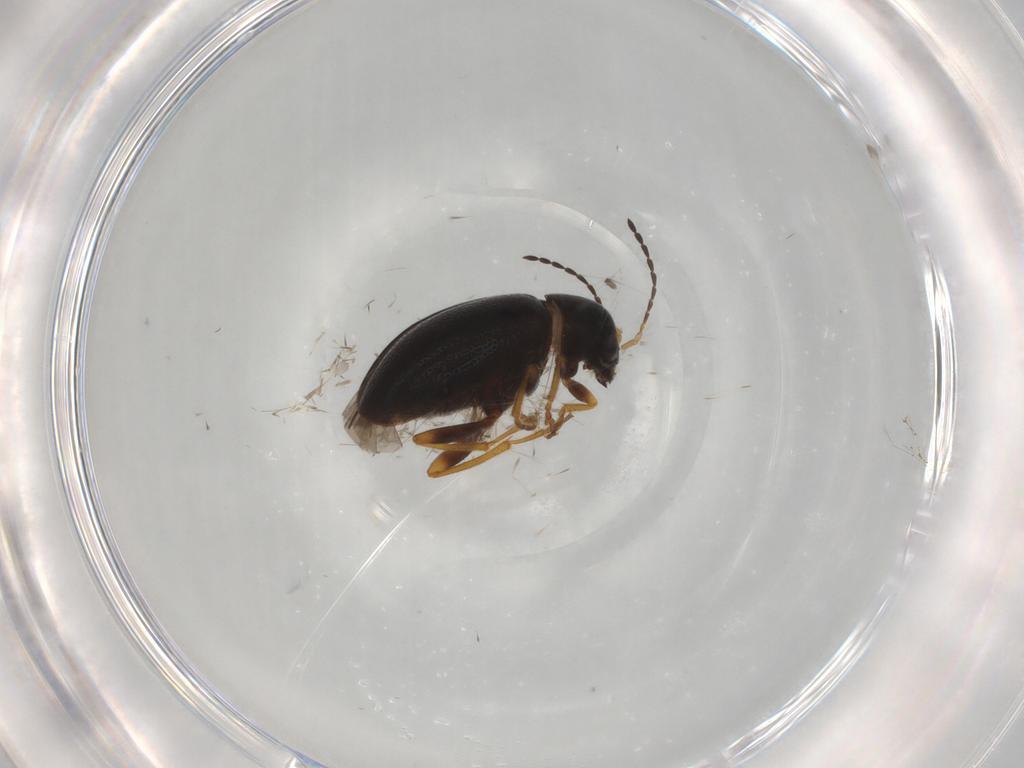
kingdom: Animalia
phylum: Arthropoda
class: Insecta
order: Coleoptera
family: Chrysomelidae
